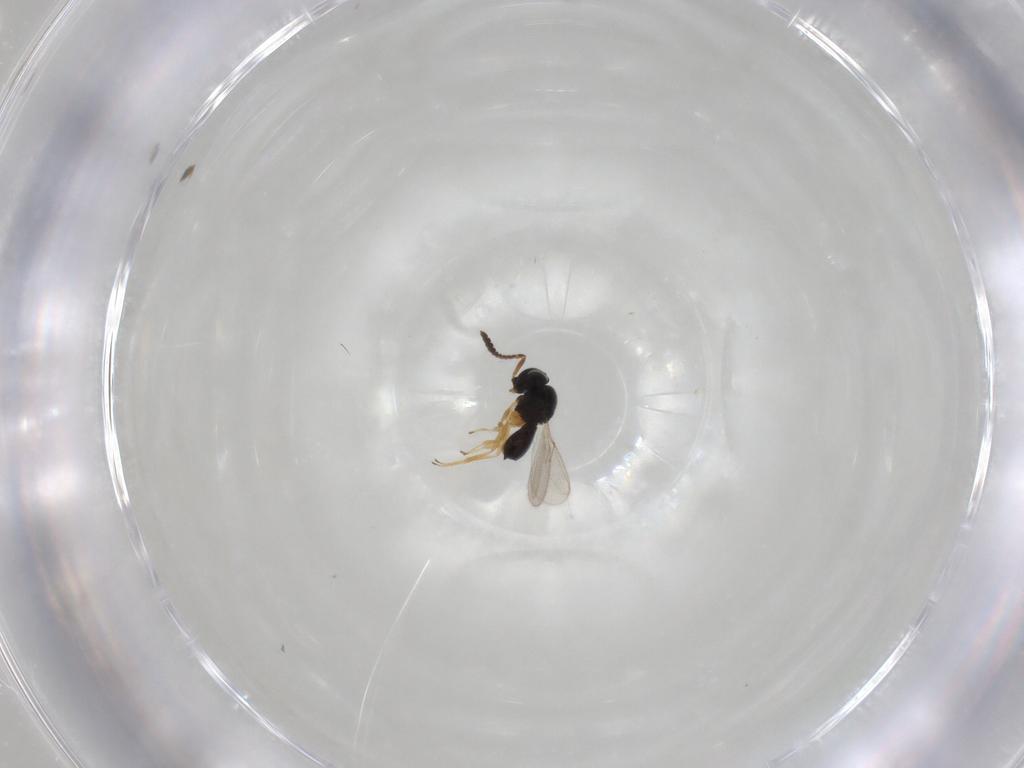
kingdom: Animalia
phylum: Arthropoda
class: Insecta
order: Hymenoptera
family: Scelionidae
